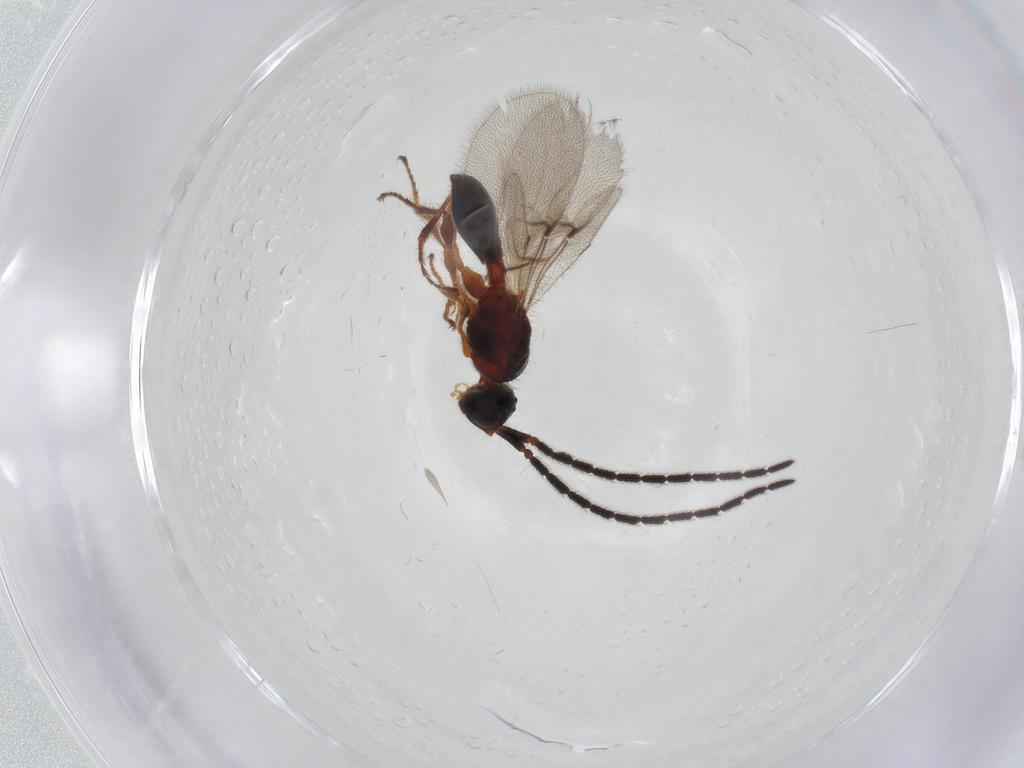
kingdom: Animalia
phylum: Arthropoda
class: Insecta
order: Hymenoptera
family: Diapriidae
